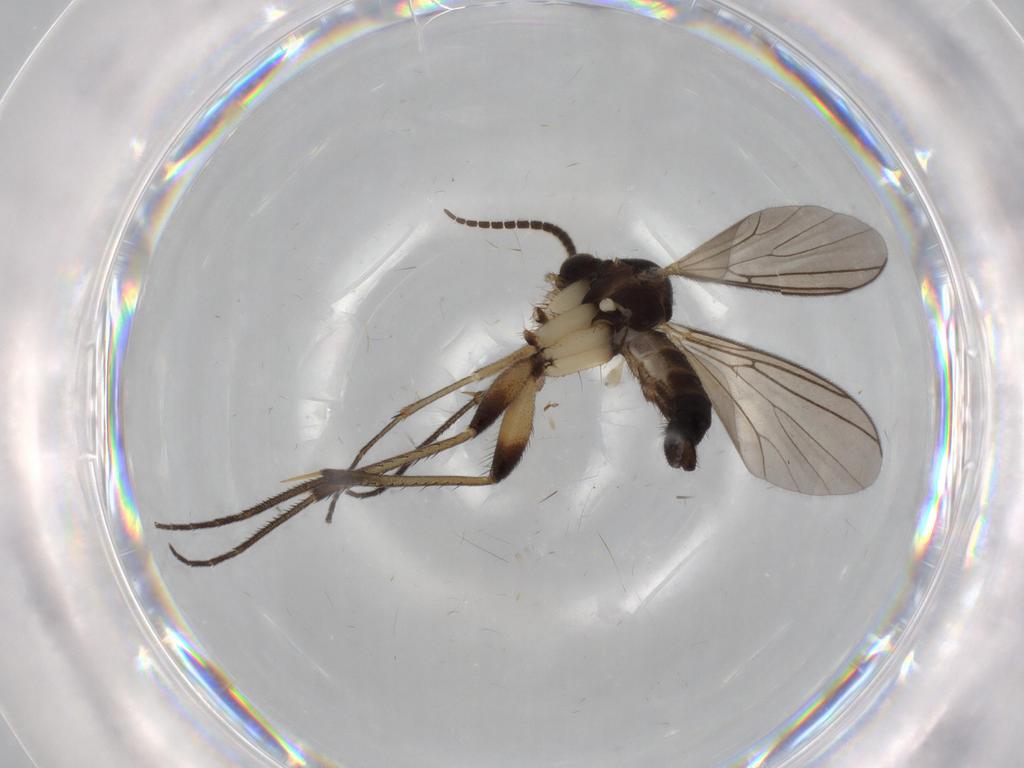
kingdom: Animalia
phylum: Arthropoda
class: Insecta
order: Diptera
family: Mycetophilidae
